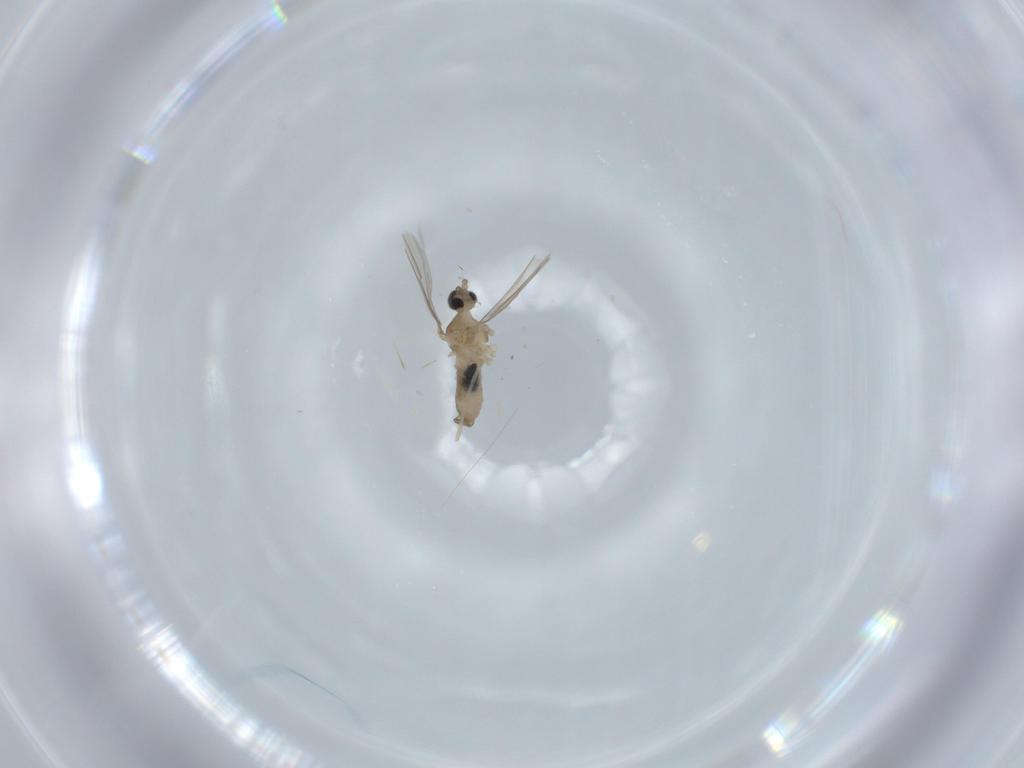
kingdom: Animalia
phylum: Arthropoda
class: Insecta
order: Diptera
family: Cecidomyiidae
